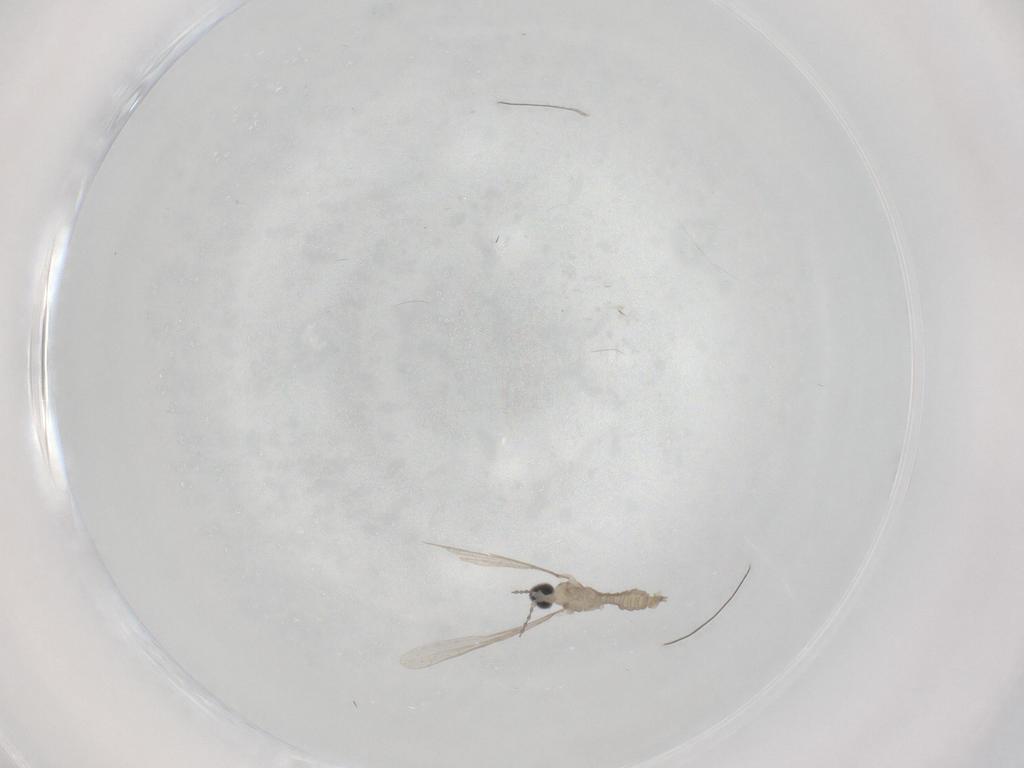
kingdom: Animalia
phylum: Arthropoda
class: Insecta
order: Diptera
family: Cecidomyiidae
